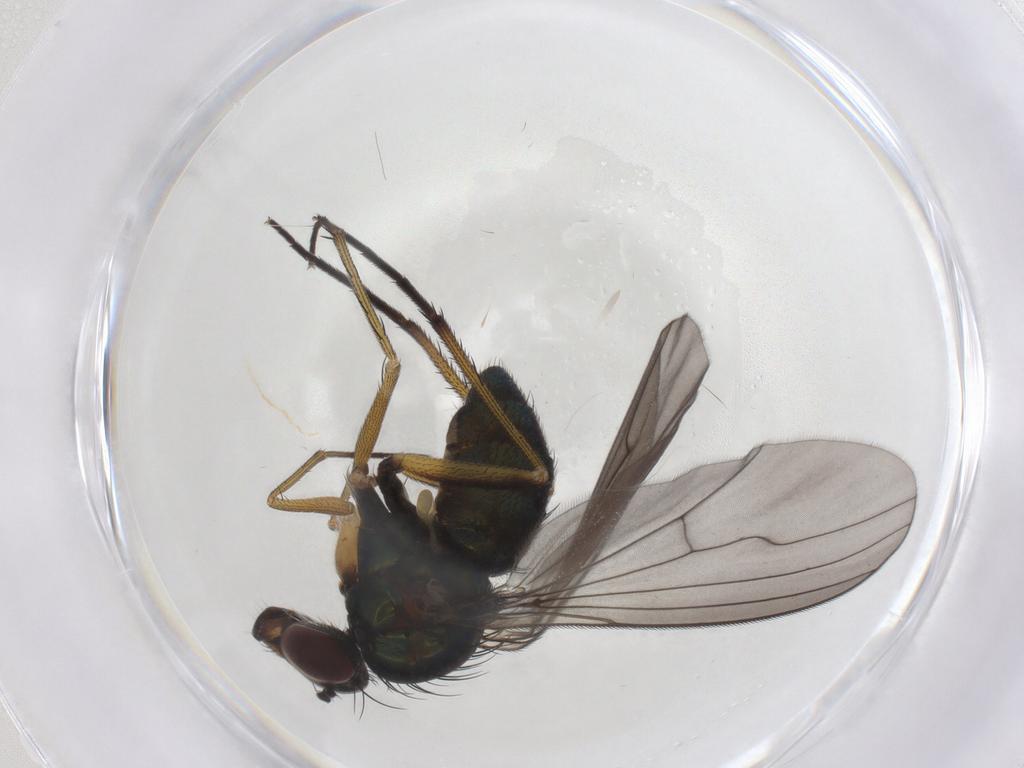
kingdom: Animalia
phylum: Arthropoda
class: Insecta
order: Diptera
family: Dolichopodidae
